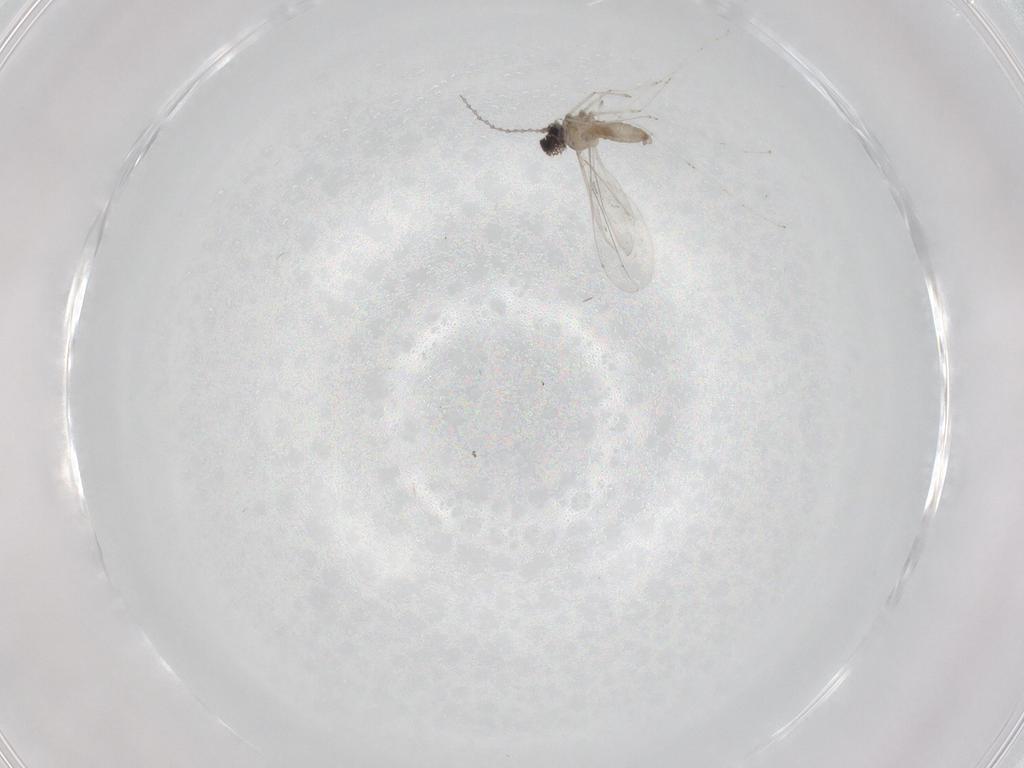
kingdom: Animalia
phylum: Arthropoda
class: Insecta
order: Diptera
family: Cecidomyiidae
